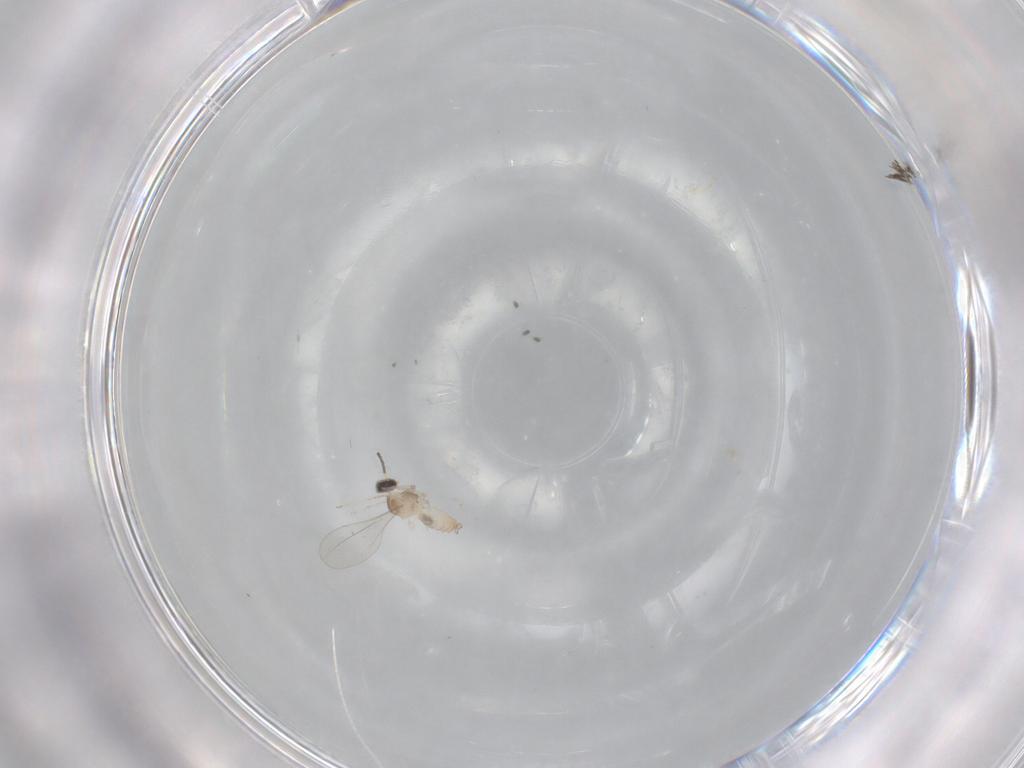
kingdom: Animalia
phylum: Arthropoda
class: Insecta
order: Diptera
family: Cecidomyiidae
